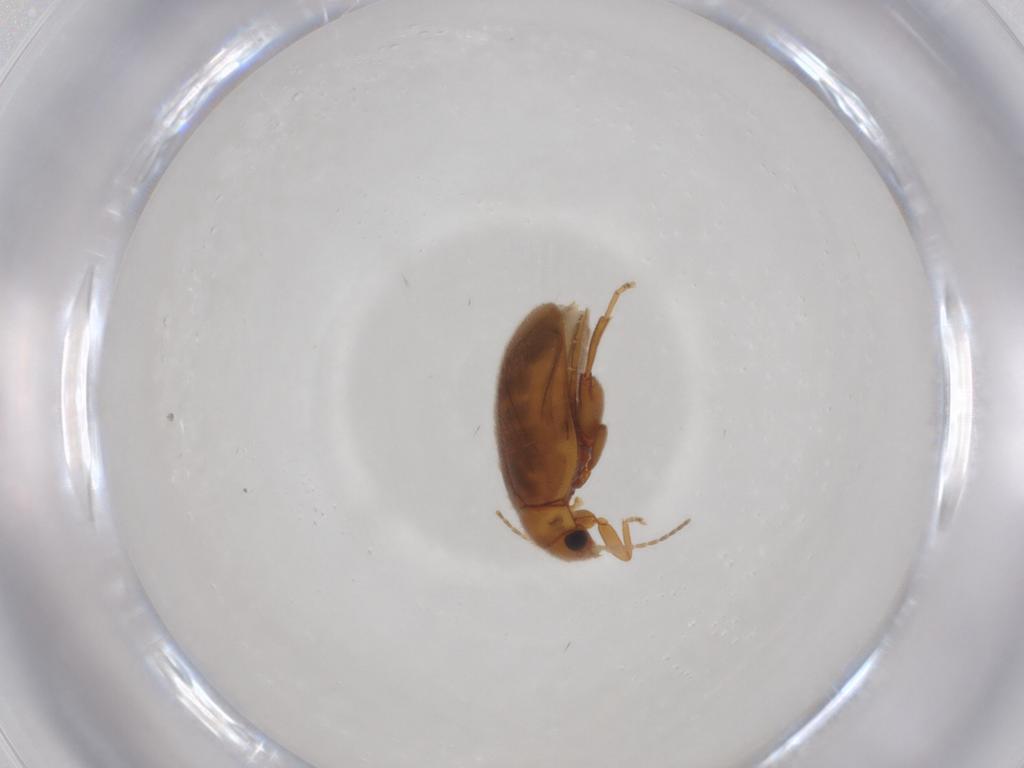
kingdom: Animalia
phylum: Arthropoda
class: Insecta
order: Coleoptera
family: Scirtidae
